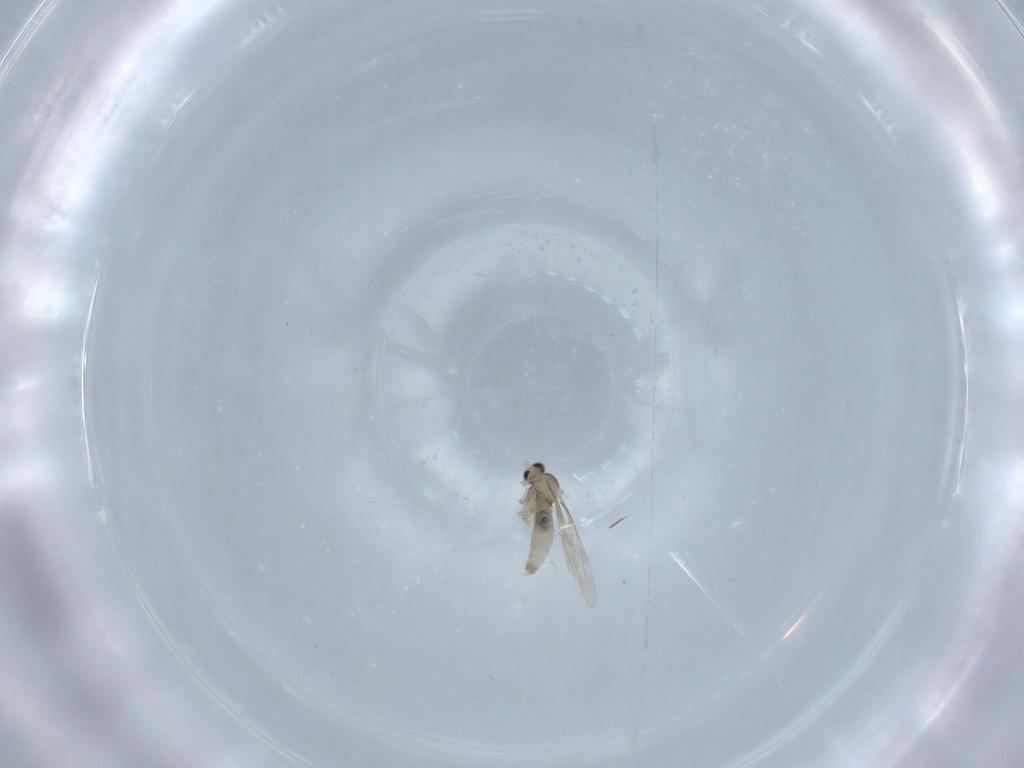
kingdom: Animalia
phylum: Arthropoda
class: Insecta
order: Diptera
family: Cecidomyiidae
